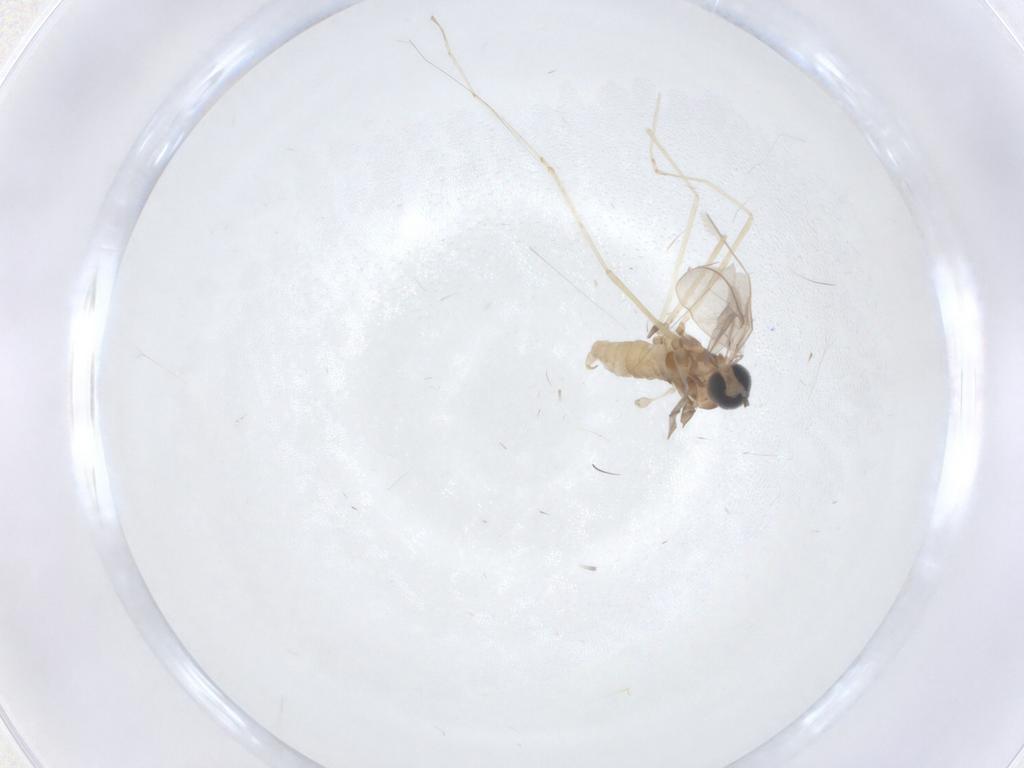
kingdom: Animalia
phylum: Arthropoda
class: Insecta
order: Diptera
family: Cecidomyiidae
